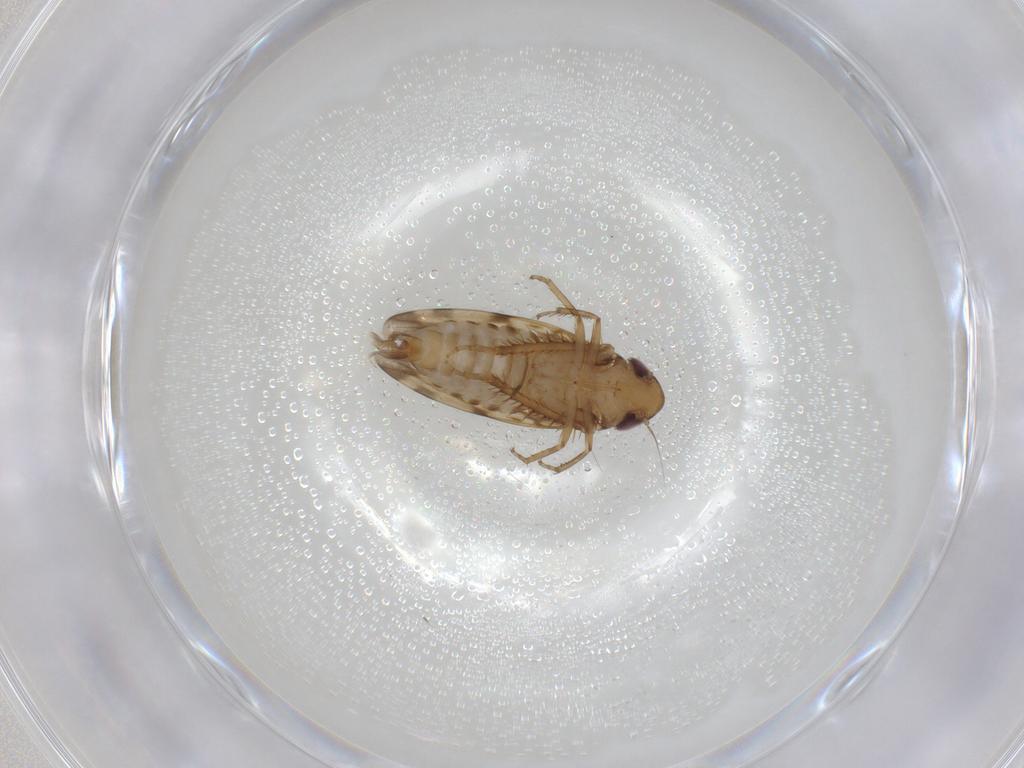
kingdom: Animalia
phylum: Arthropoda
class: Insecta
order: Hemiptera
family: Cicadellidae
